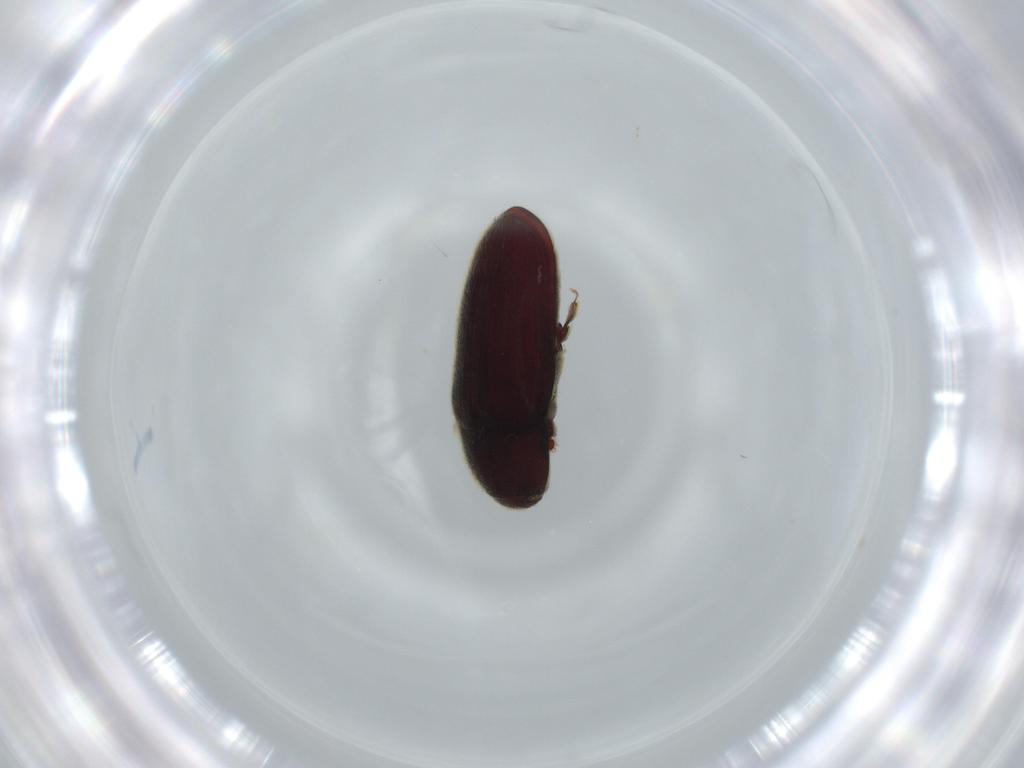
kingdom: Animalia
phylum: Arthropoda
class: Insecta
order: Coleoptera
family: Throscidae
